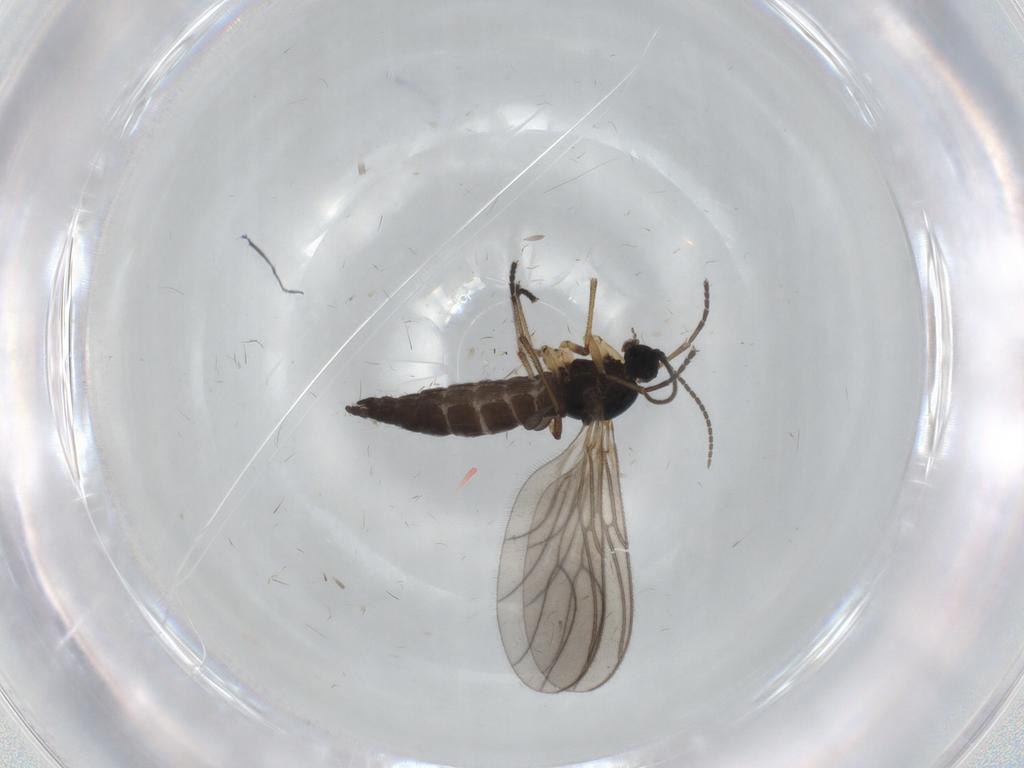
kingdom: Animalia
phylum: Arthropoda
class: Insecta
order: Diptera
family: Sciaridae
